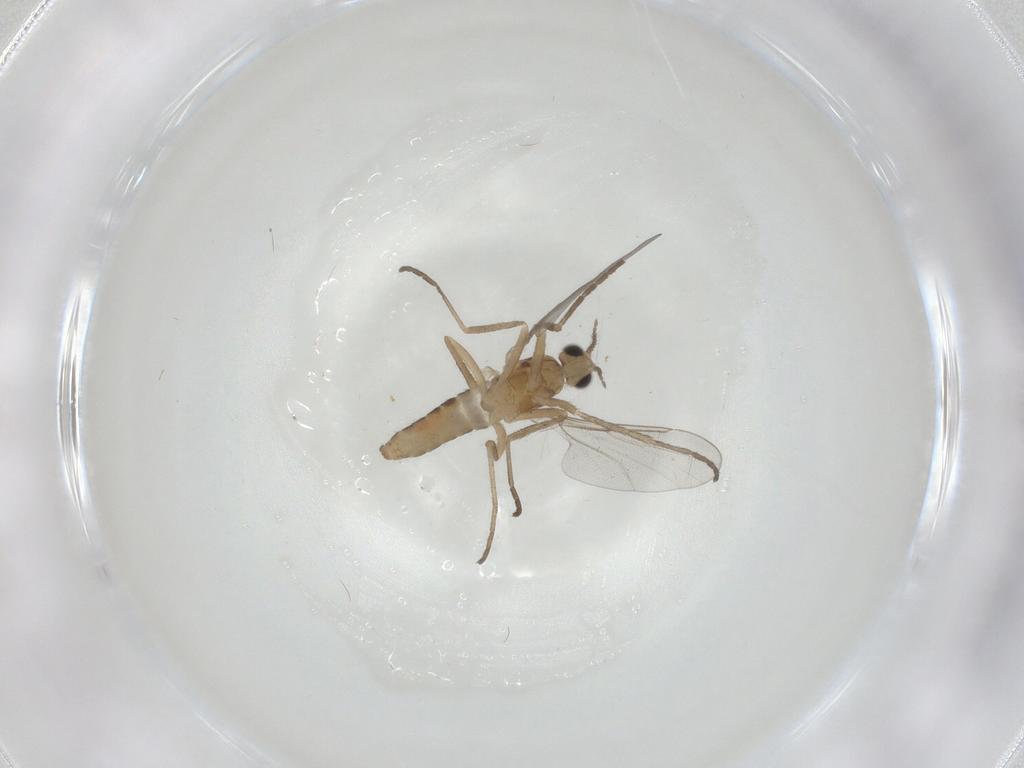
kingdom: Animalia
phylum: Arthropoda
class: Insecta
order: Diptera
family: Cecidomyiidae
